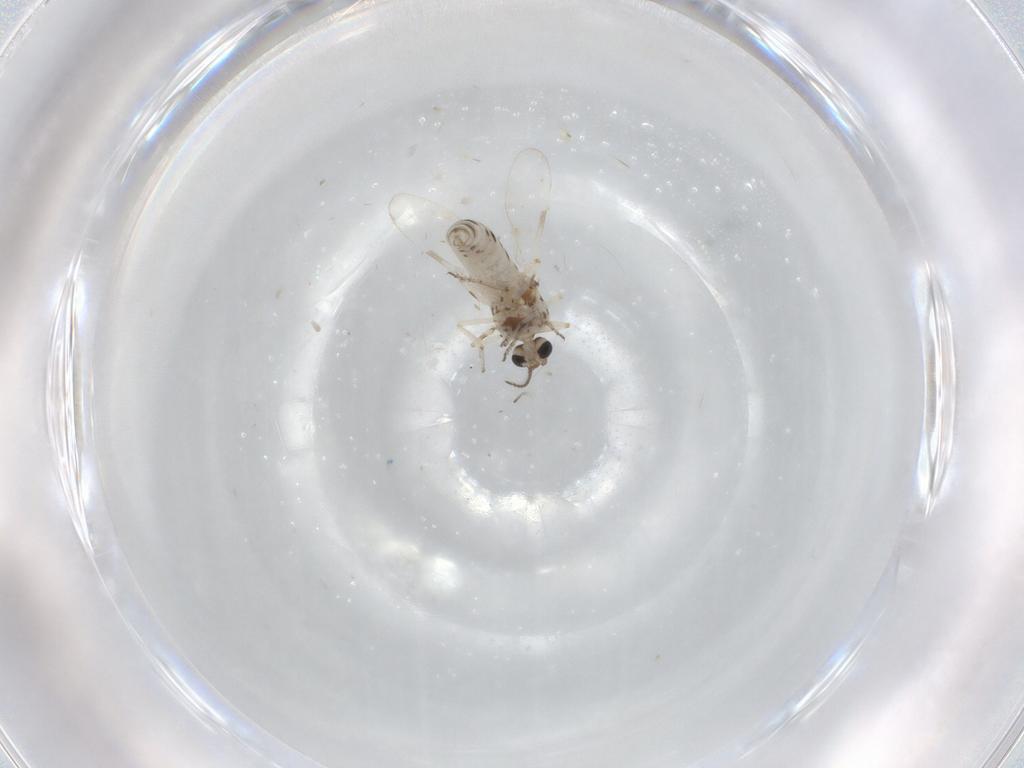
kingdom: Animalia
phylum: Arthropoda
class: Insecta
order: Diptera
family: Ceratopogonidae
